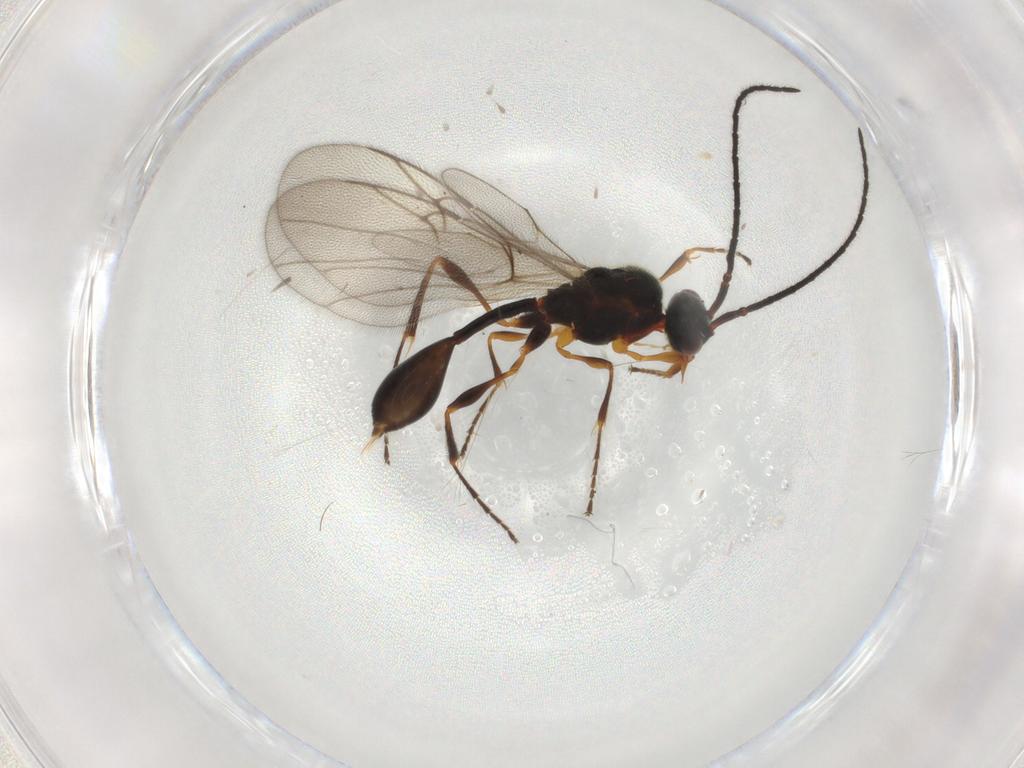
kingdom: Animalia
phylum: Arthropoda
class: Insecta
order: Hymenoptera
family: Diapriidae
